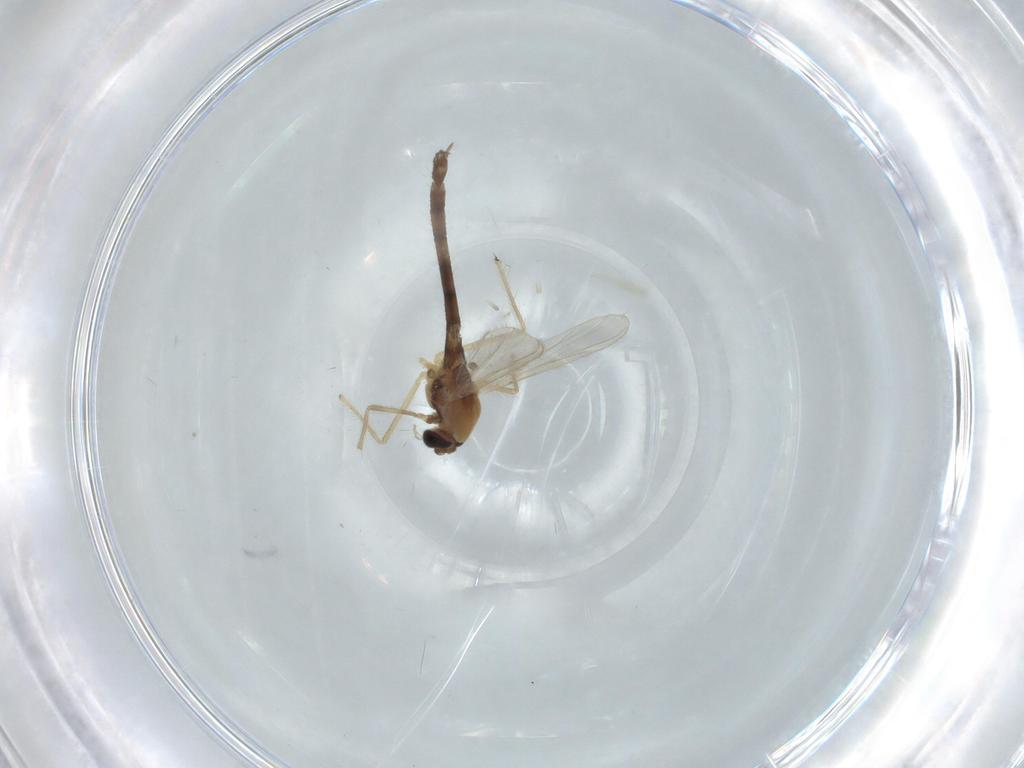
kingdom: Animalia
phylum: Arthropoda
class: Insecta
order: Diptera
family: Chironomidae
